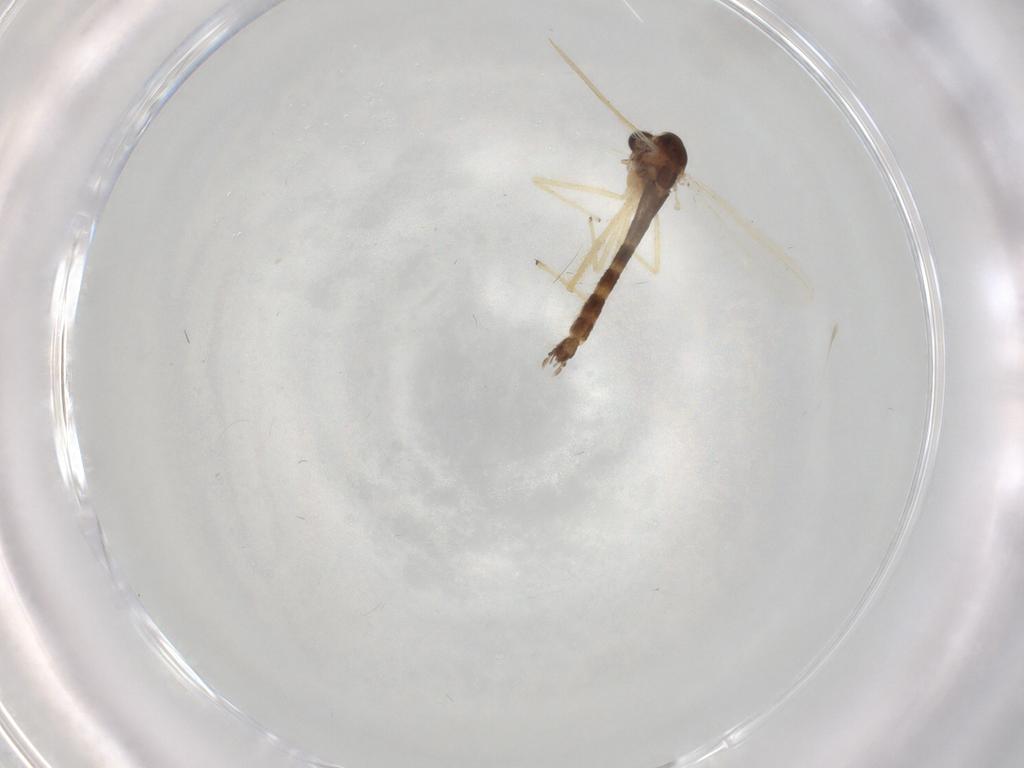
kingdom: Animalia
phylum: Arthropoda
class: Insecta
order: Diptera
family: Chironomidae
